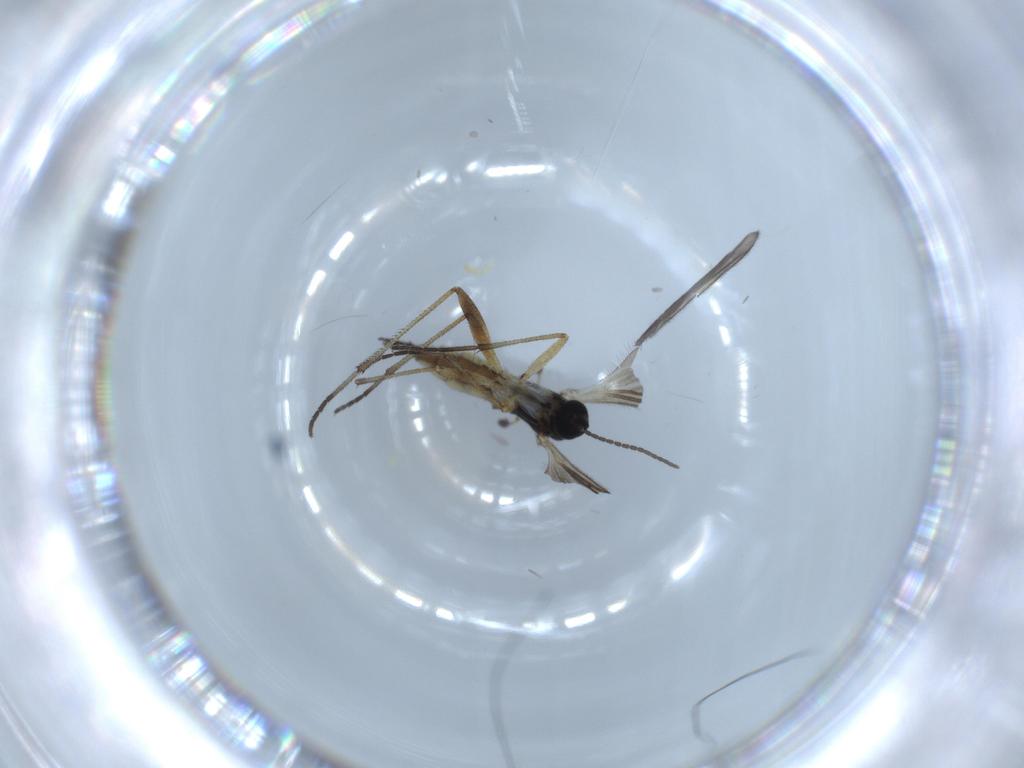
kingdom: Animalia
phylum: Arthropoda
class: Insecta
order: Diptera
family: Sciaridae
